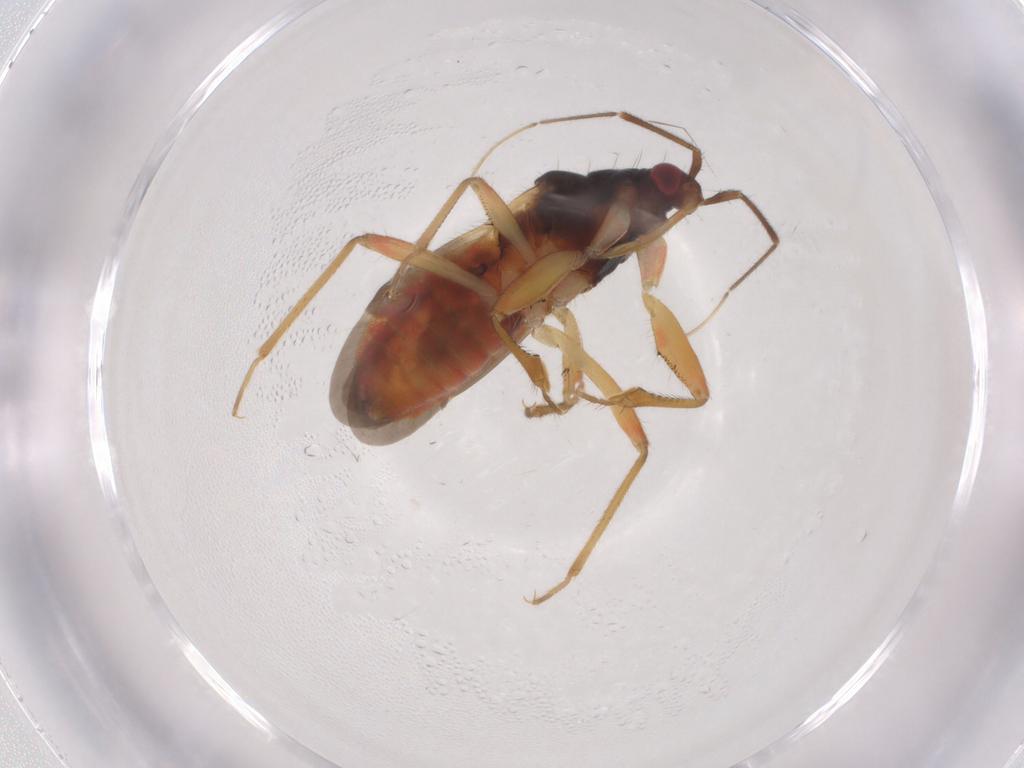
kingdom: Animalia
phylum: Arthropoda
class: Insecta
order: Hemiptera
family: Nabidae
